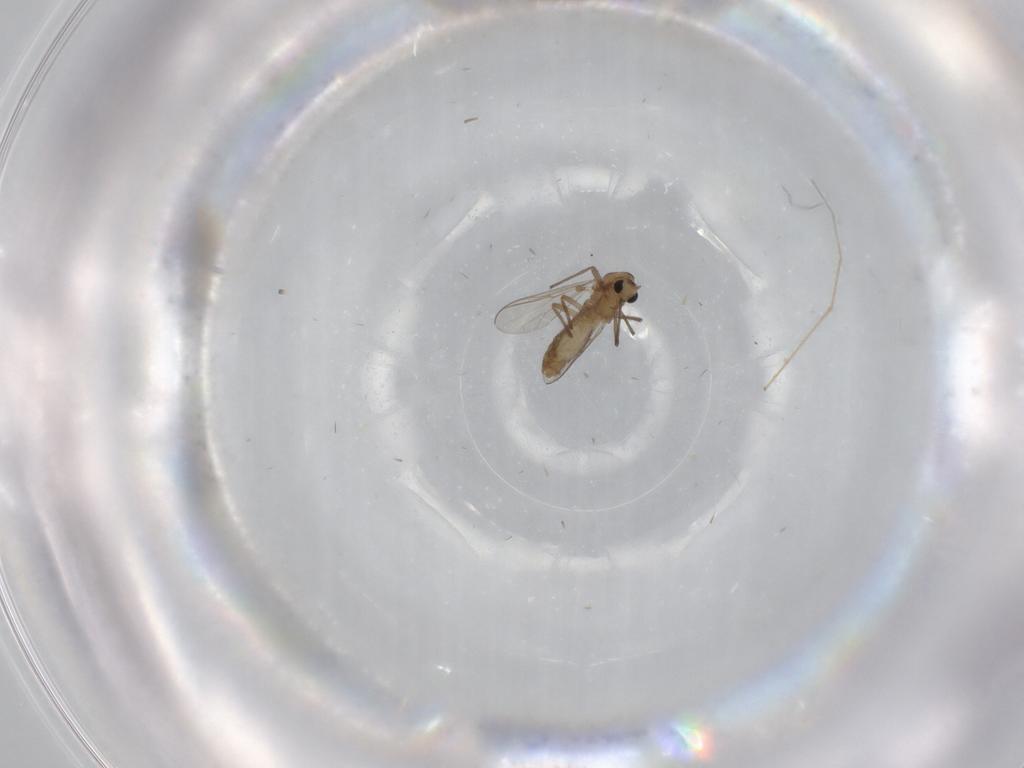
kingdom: Animalia
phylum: Arthropoda
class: Insecta
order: Diptera
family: Chironomidae
